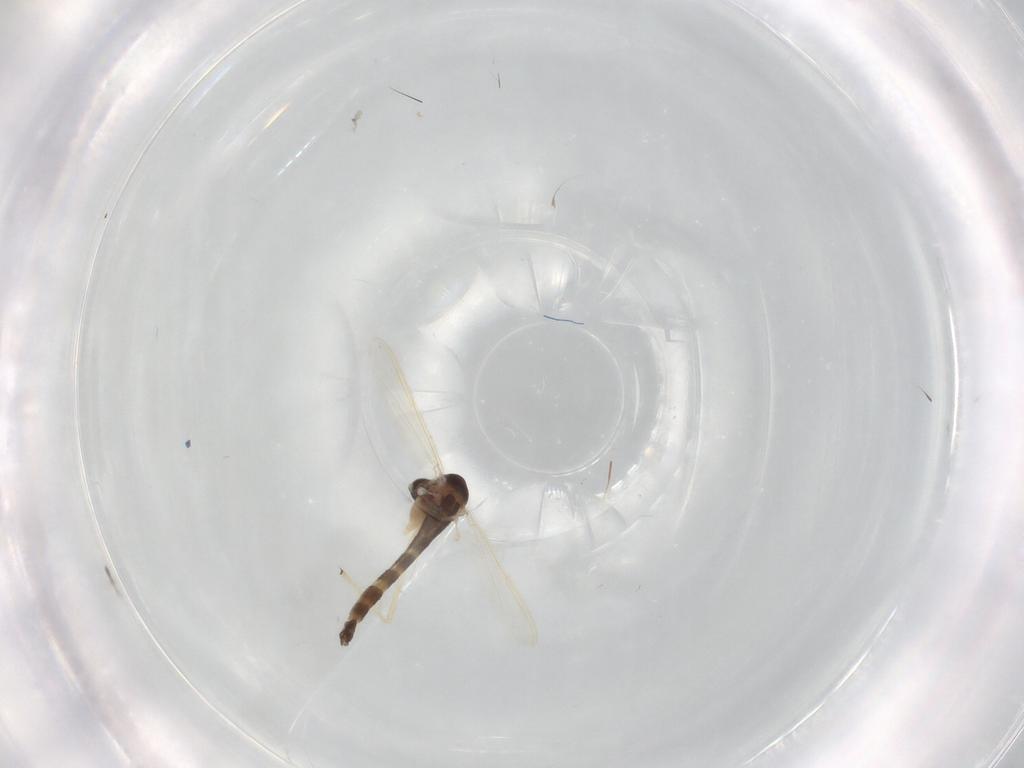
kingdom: Animalia
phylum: Arthropoda
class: Insecta
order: Diptera
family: Chironomidae
